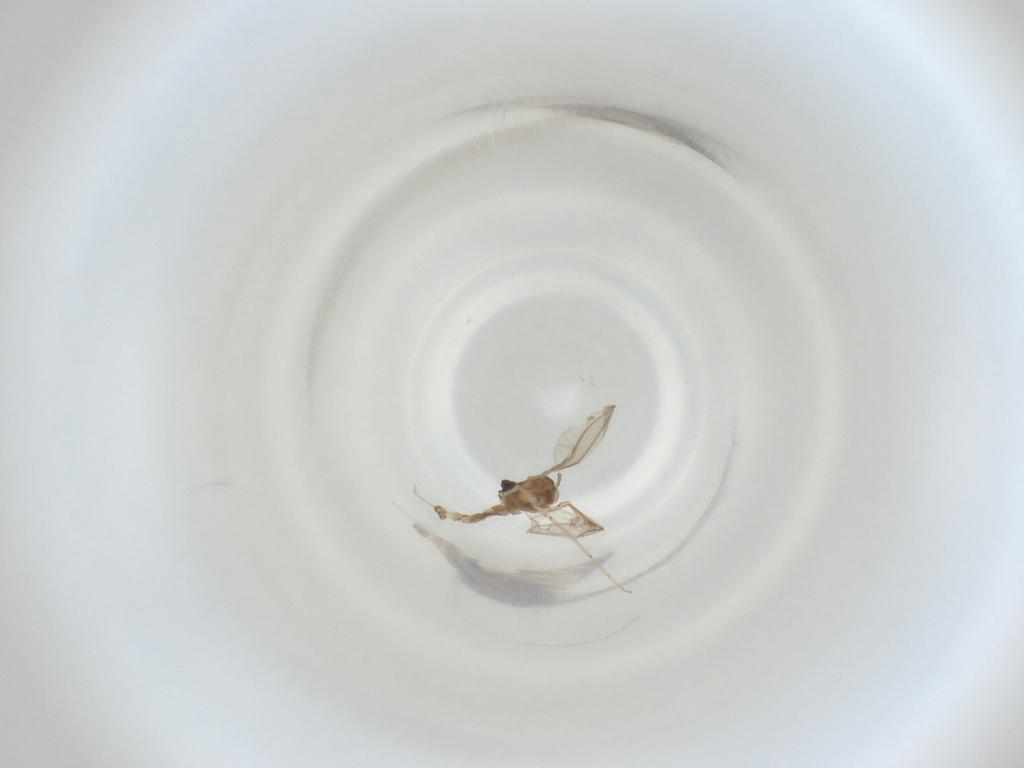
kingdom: Animalia
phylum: Arthropoda
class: Insecta
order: Diptera
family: Cecidomyiidae
